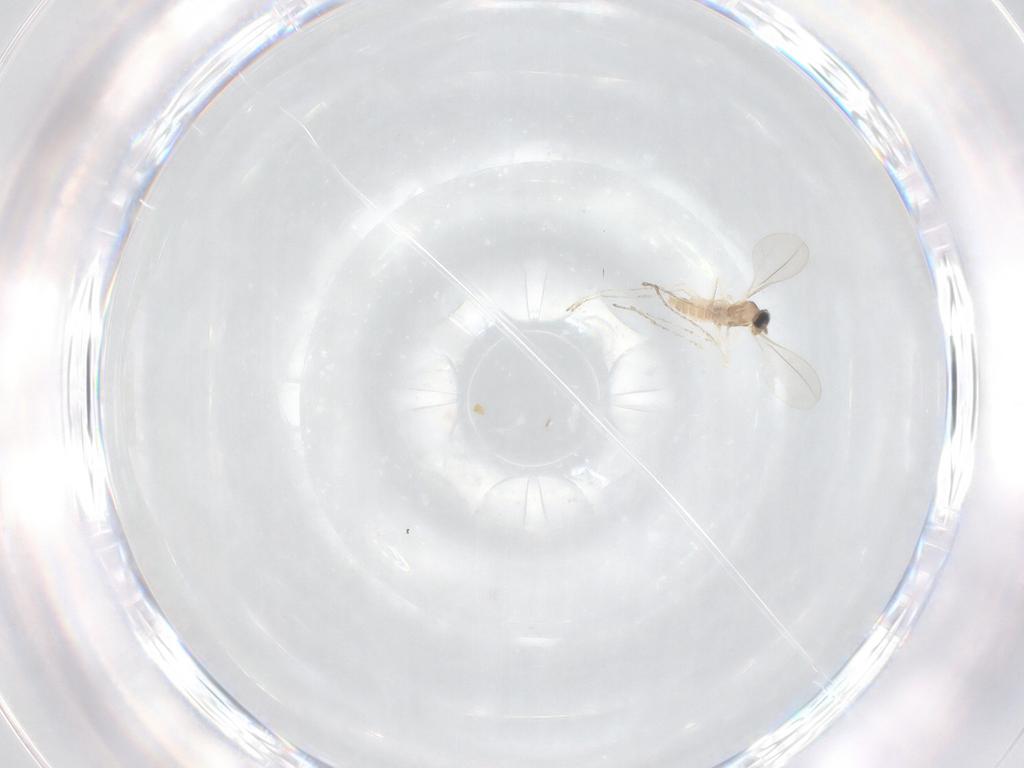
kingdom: Animalia
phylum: Arthropoda
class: Insecta
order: Diptera
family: Cecidomyiidae
